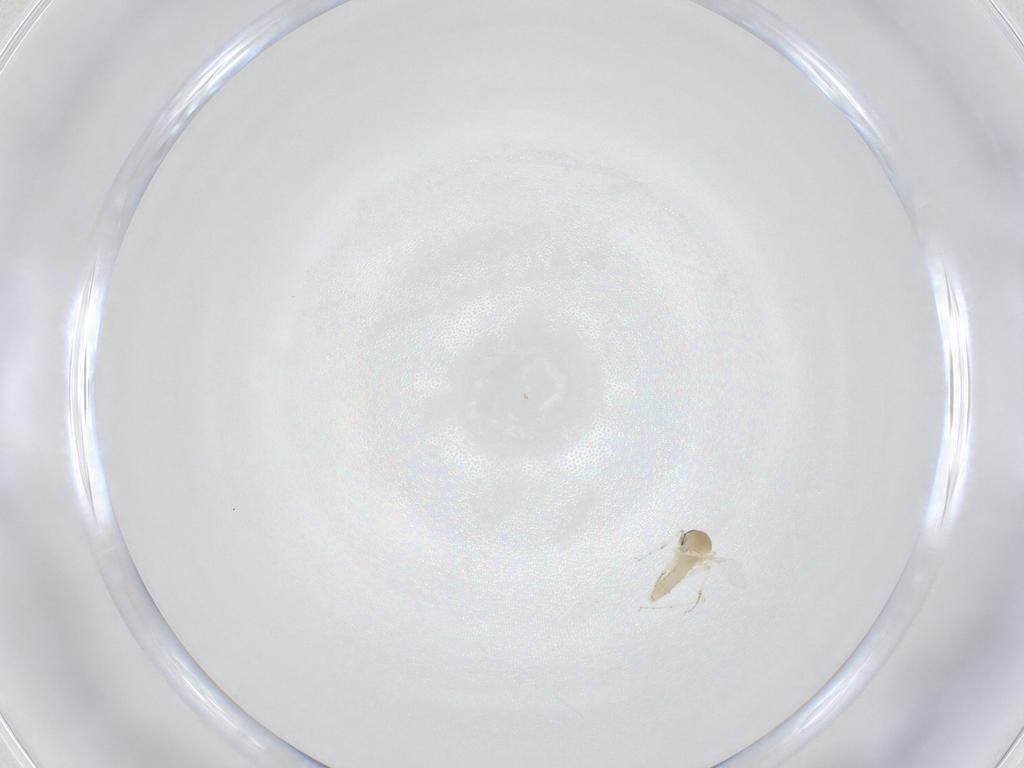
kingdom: Animalia
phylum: Arthropoda
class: Insecta
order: Diptera
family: Ceratopogonidae
